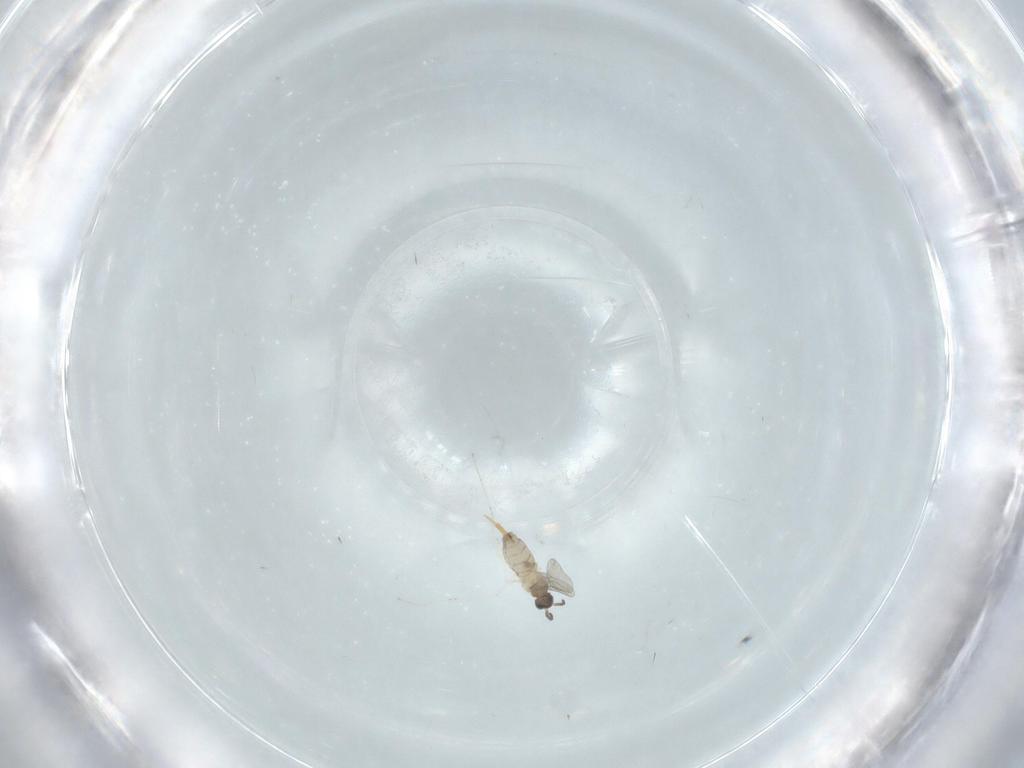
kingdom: Animalia
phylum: Arthropoda
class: Insecta
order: Diptera
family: Cecidomyiidae
